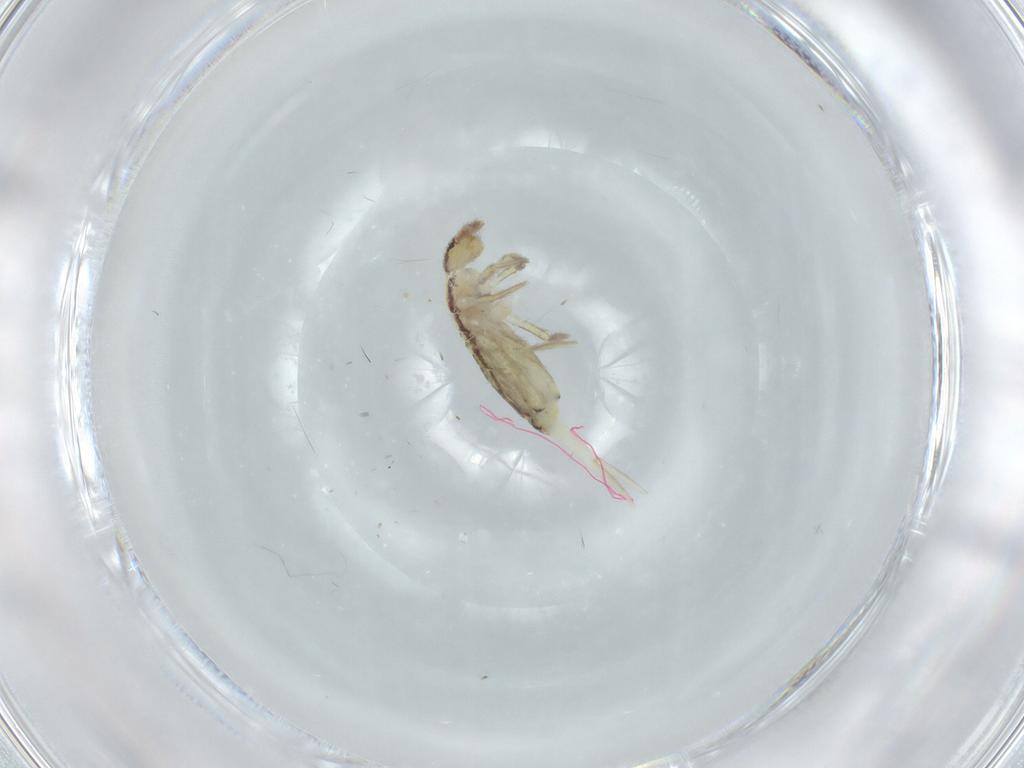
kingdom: Animalia
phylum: Arthropoda
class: Collembola
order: Entomobryomorpha
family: Entomobryidae
